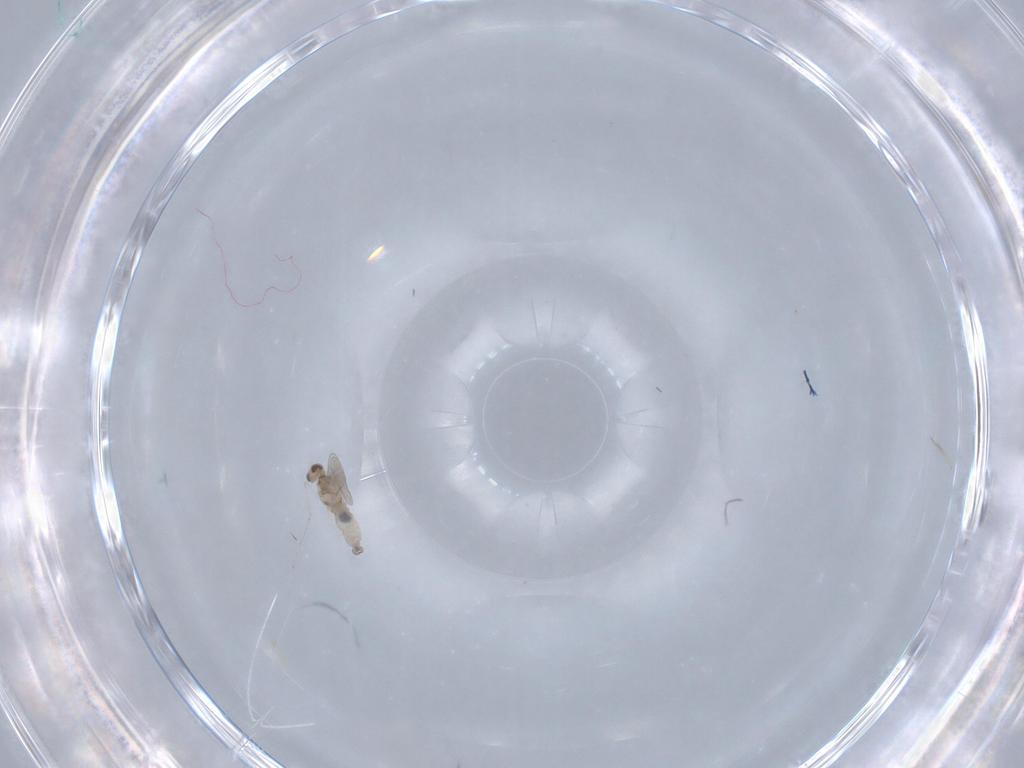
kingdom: Animalia
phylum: Arthropoda
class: Insecta
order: Diptera
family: Cecidomyiidae
